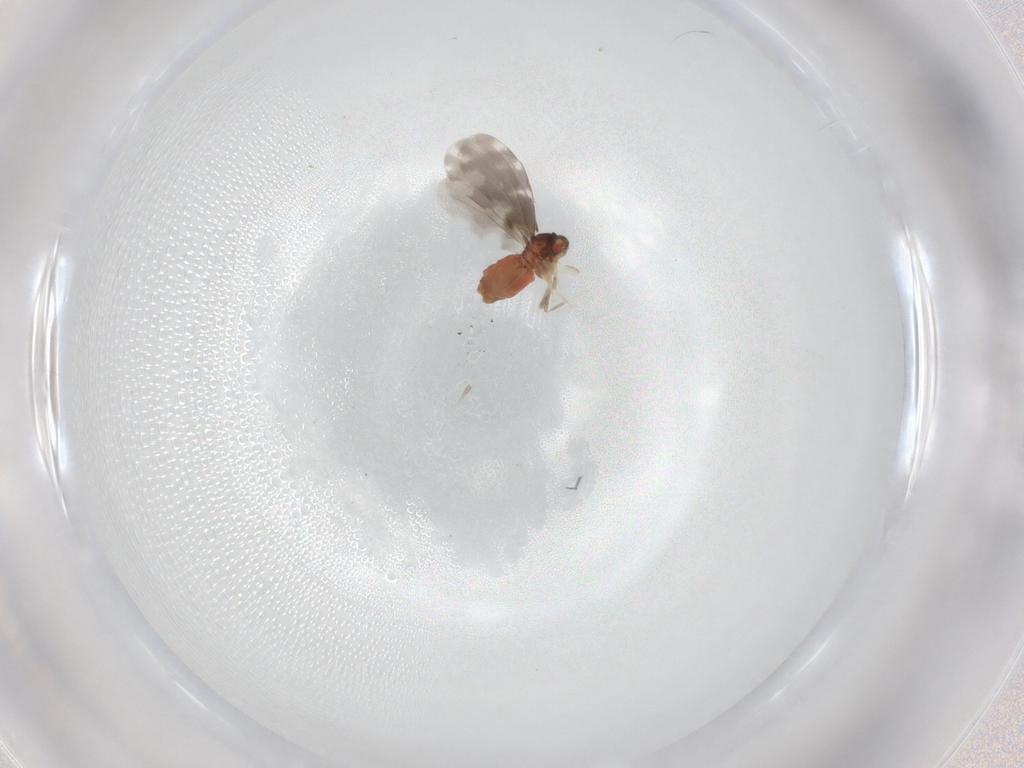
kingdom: Animalia
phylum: Arthropoda
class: Insecta
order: Hemiptera
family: Aleyrodidae
